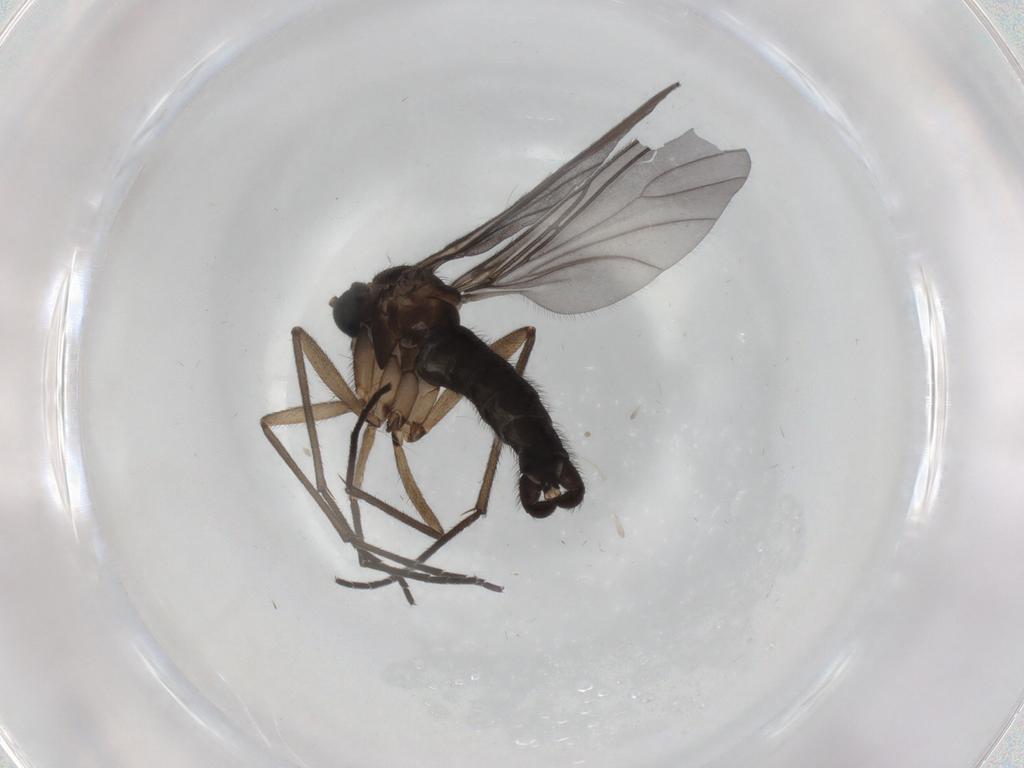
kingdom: Animalia
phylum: Arthropoda
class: Insecta
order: Diptera
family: Sciaridae
